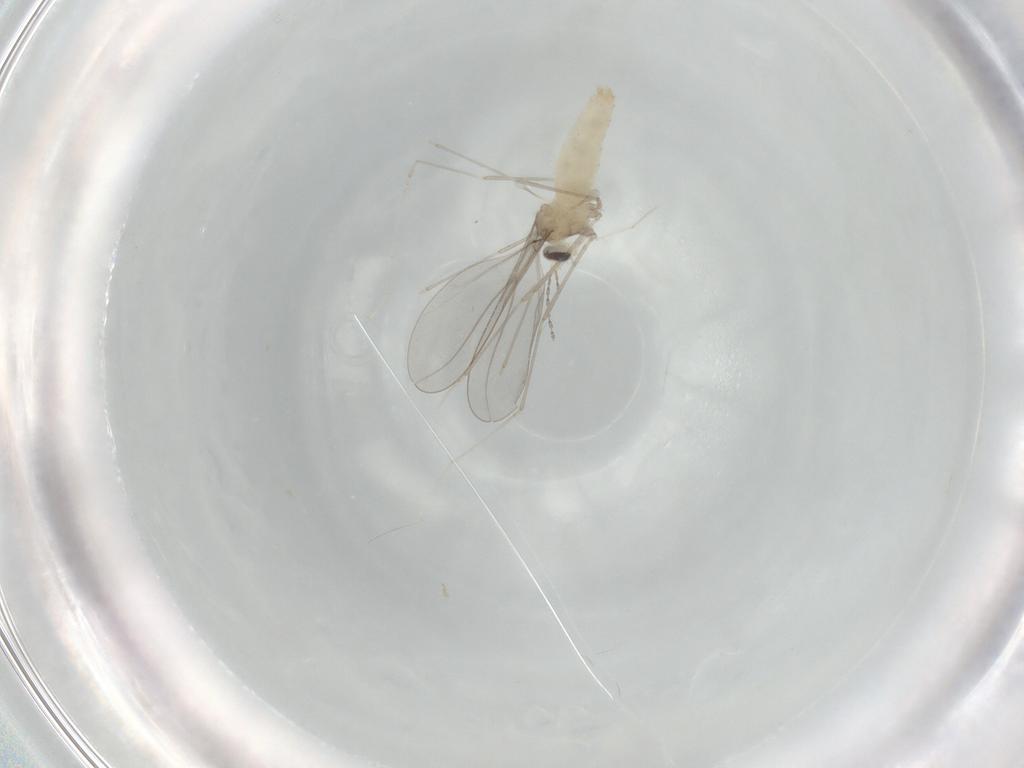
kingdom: Animalia
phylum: Arthropoda
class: Insecta
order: Diptera
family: Cecidomyiidae
